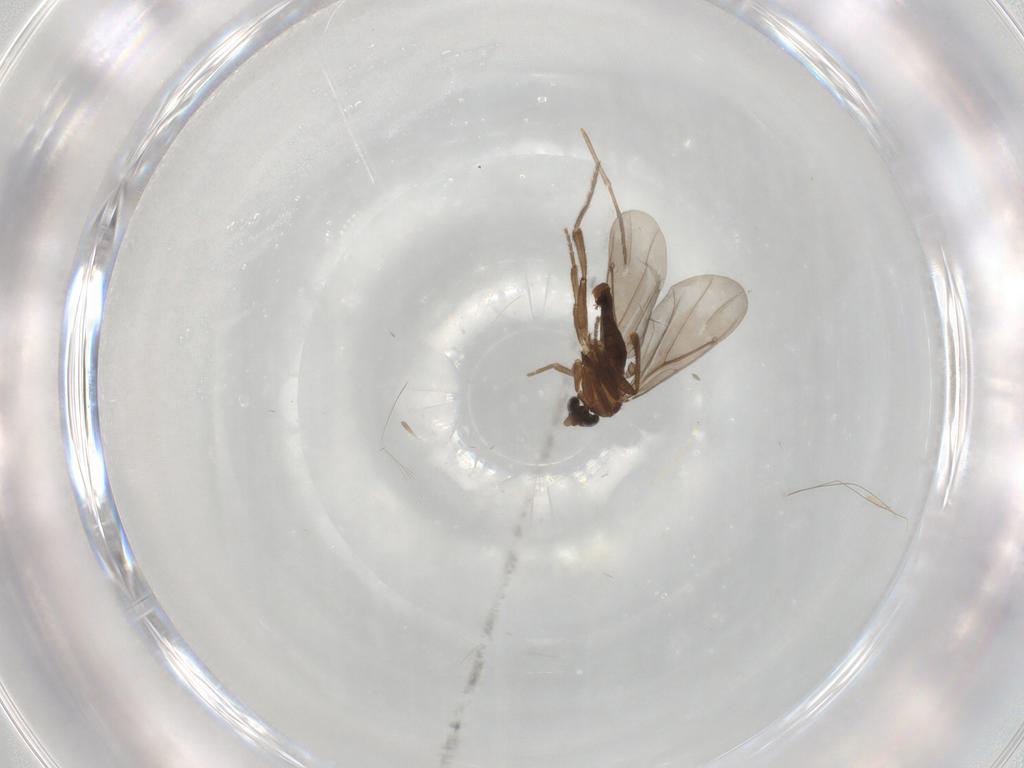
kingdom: Animalia
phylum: Arthropoda
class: Insecta
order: Diptera
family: Phoridae
